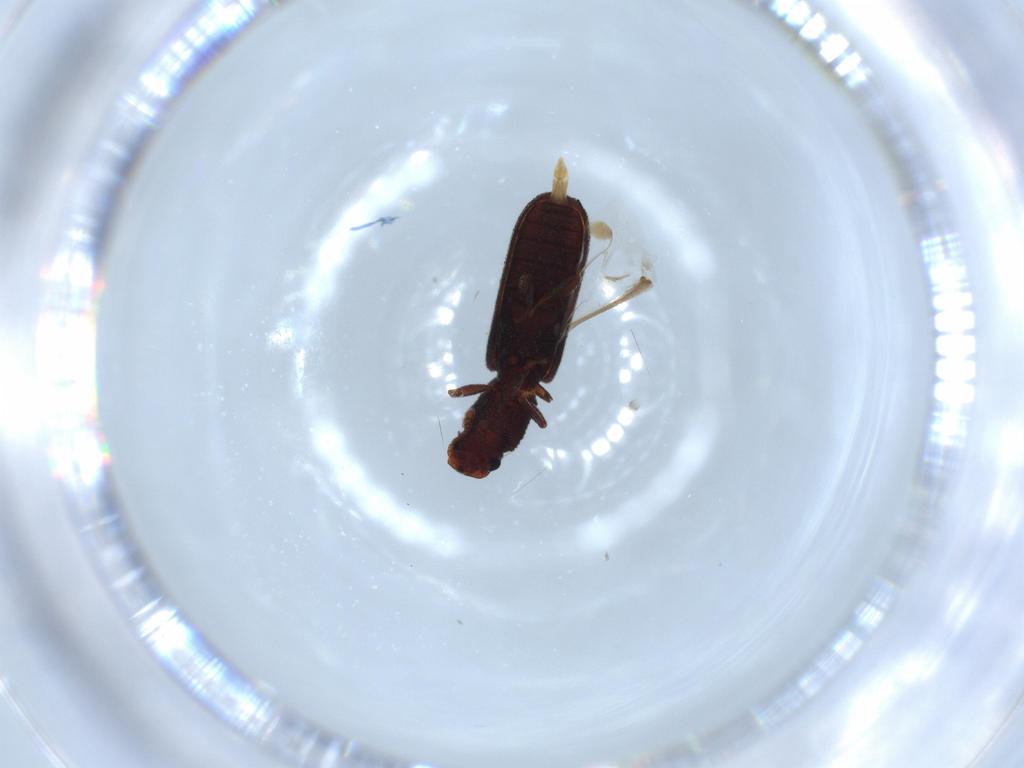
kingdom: Animalia
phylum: Arthropoda
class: Insecta
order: Coleoptera
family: Zopheridae
